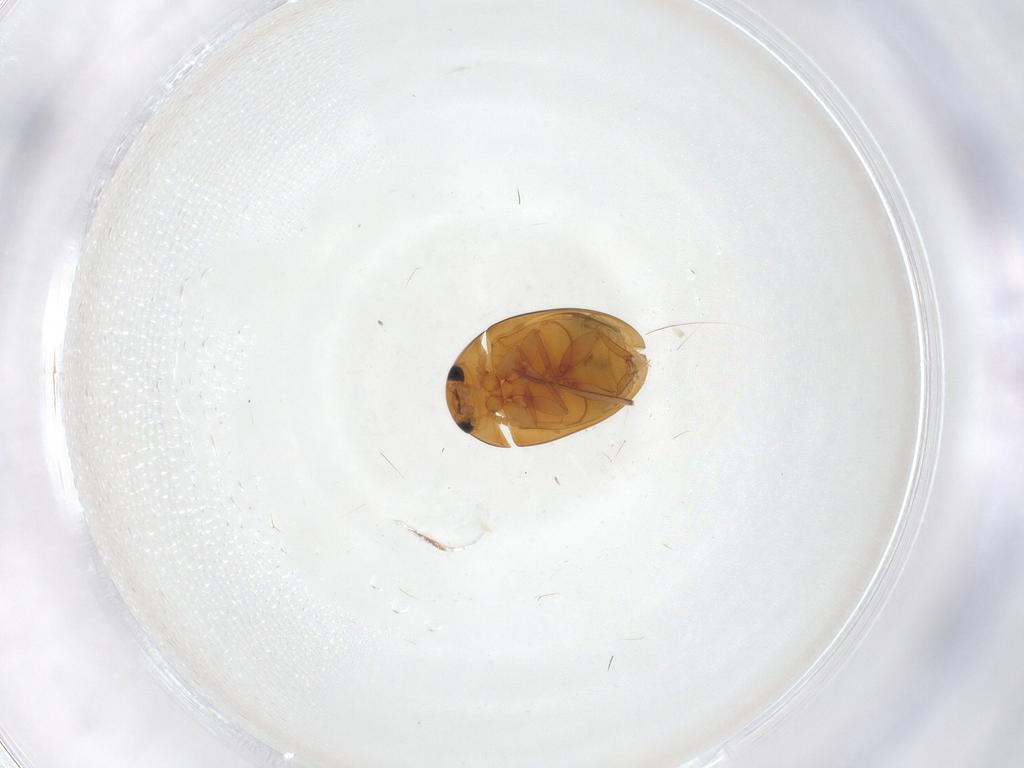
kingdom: Animalia
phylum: Arthropoda
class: Insecta
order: Coleoptera
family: Phalacridae
